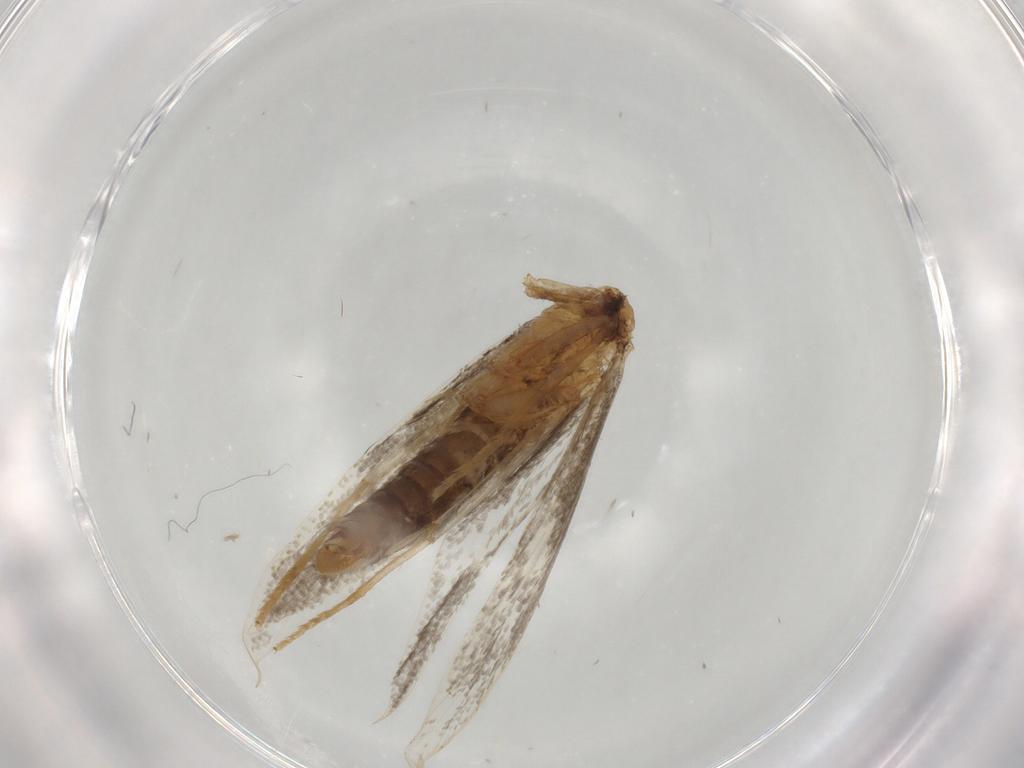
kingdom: Animalia
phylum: Arthropoda
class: Insecta
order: Lepidoptera
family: Tineidae
